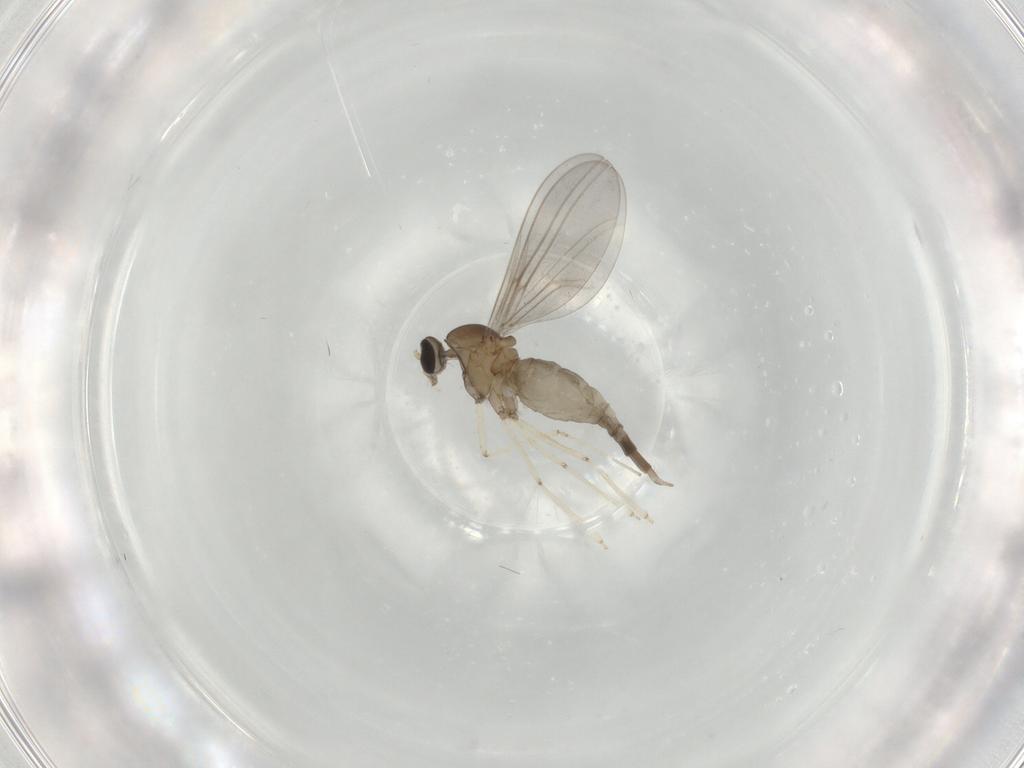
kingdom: Animalia
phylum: Arthropoda
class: Insecta
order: Diptera
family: Cecidomyiidae
